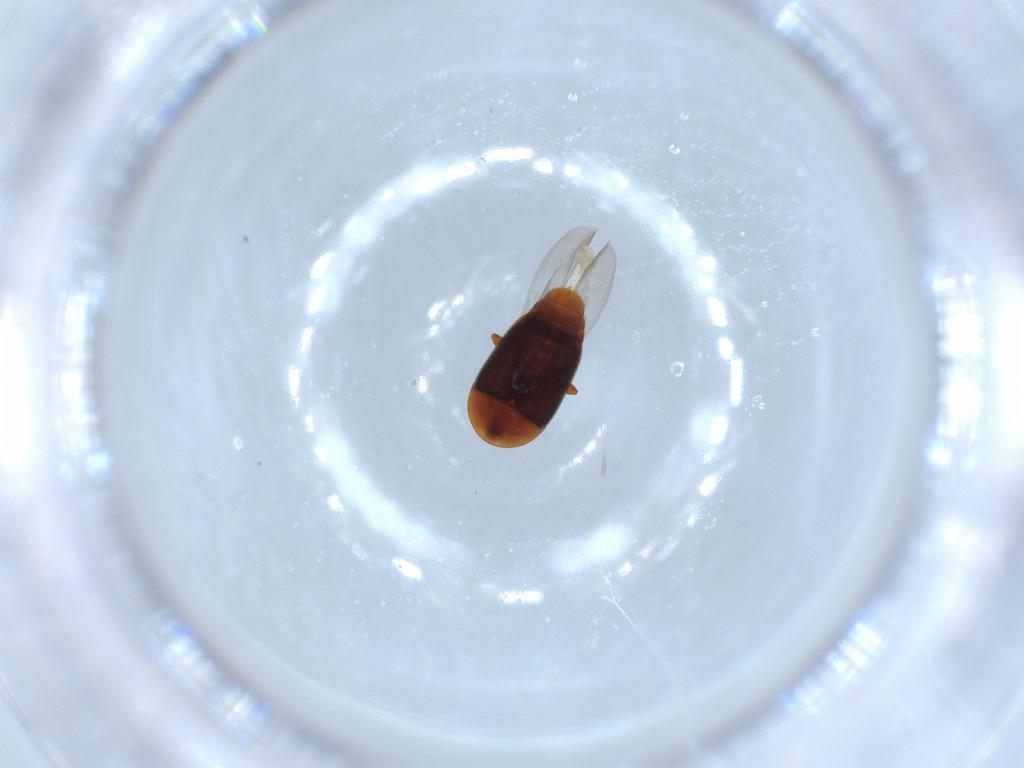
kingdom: Animalia
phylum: Arthropoda
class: Insecta
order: Coleoptera
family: Corylophidae
